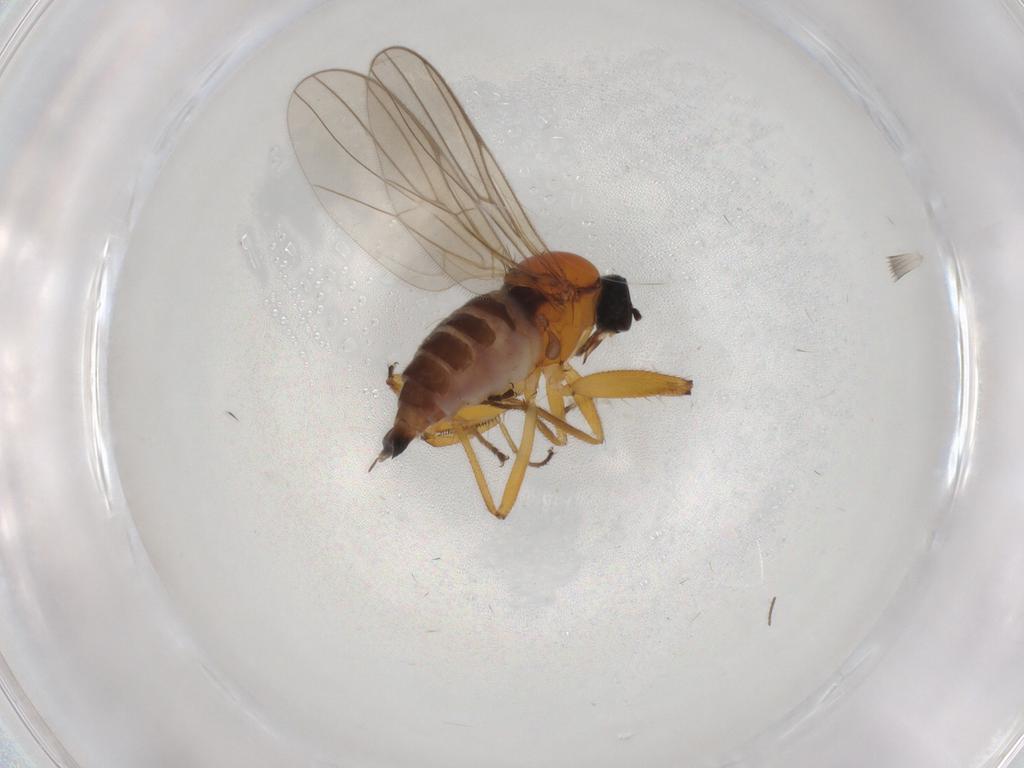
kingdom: Animalia
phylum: Arthropoda
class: Insecta
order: Diptera
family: Hybotidae
